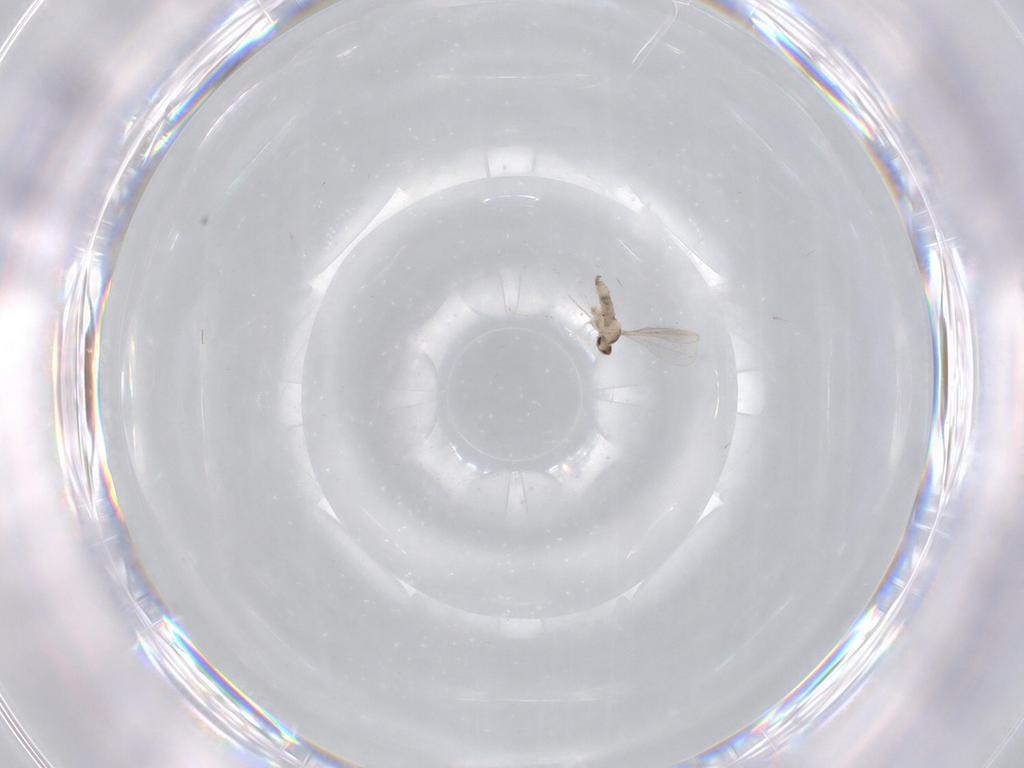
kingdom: Animalia
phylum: Arthropoda
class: Insecta
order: Diptera
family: Cecidomyiidae
